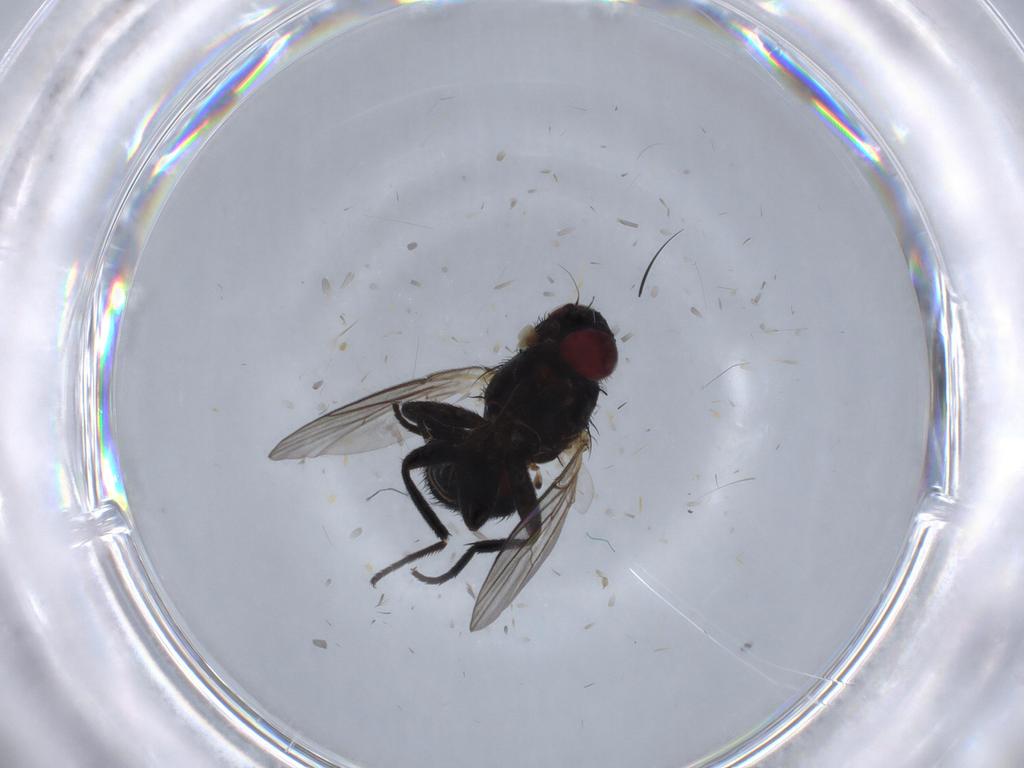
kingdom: Animalia
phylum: Arthropoda
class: Insecta
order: Diptera
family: Agromyzidae
